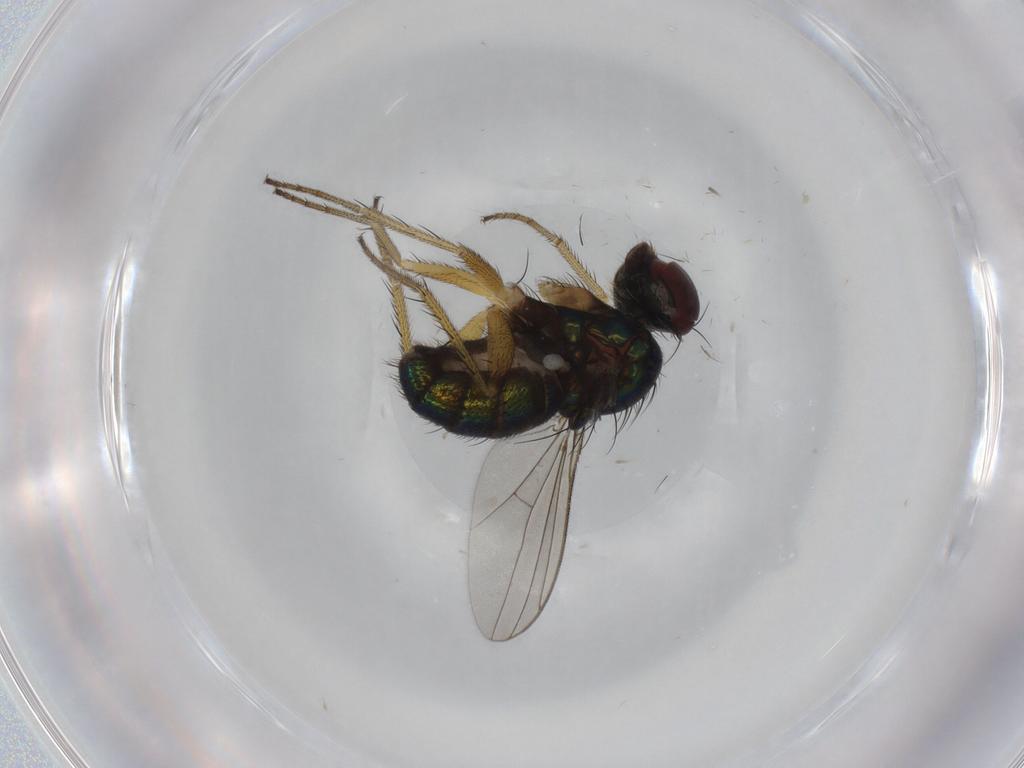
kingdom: Animalia
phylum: Arthropoda
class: Insecta
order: Diptera
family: Dolichopodidae
